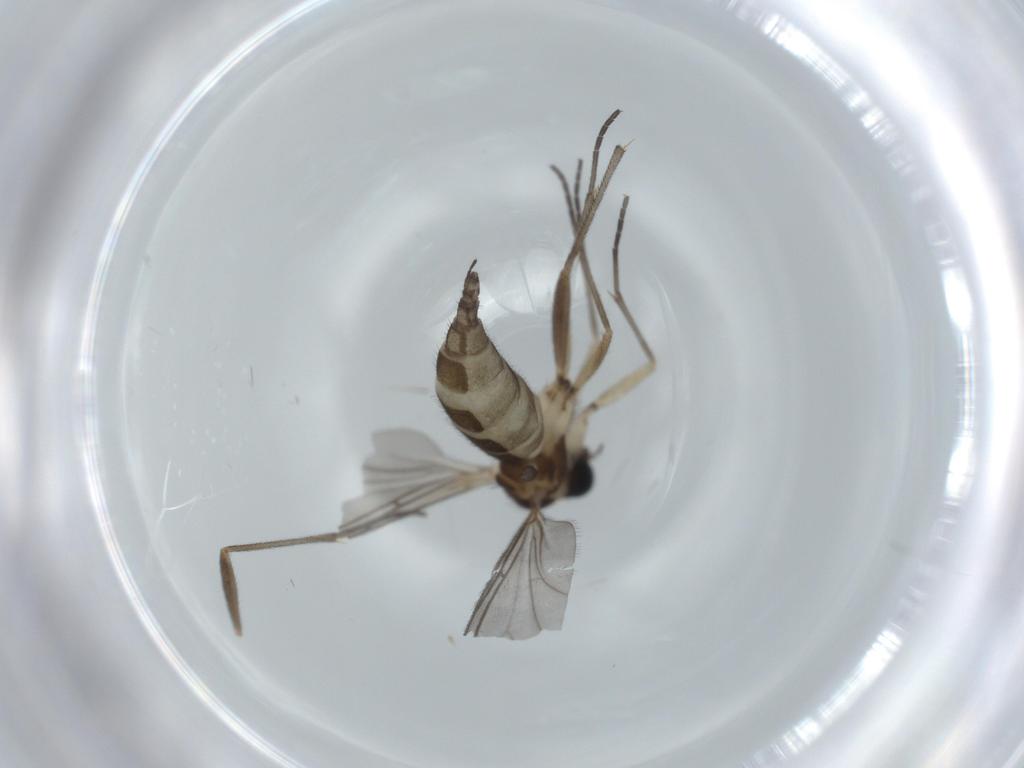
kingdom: Animalia
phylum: Arthropoda
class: Insecta
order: Diptera
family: Sciaridae
